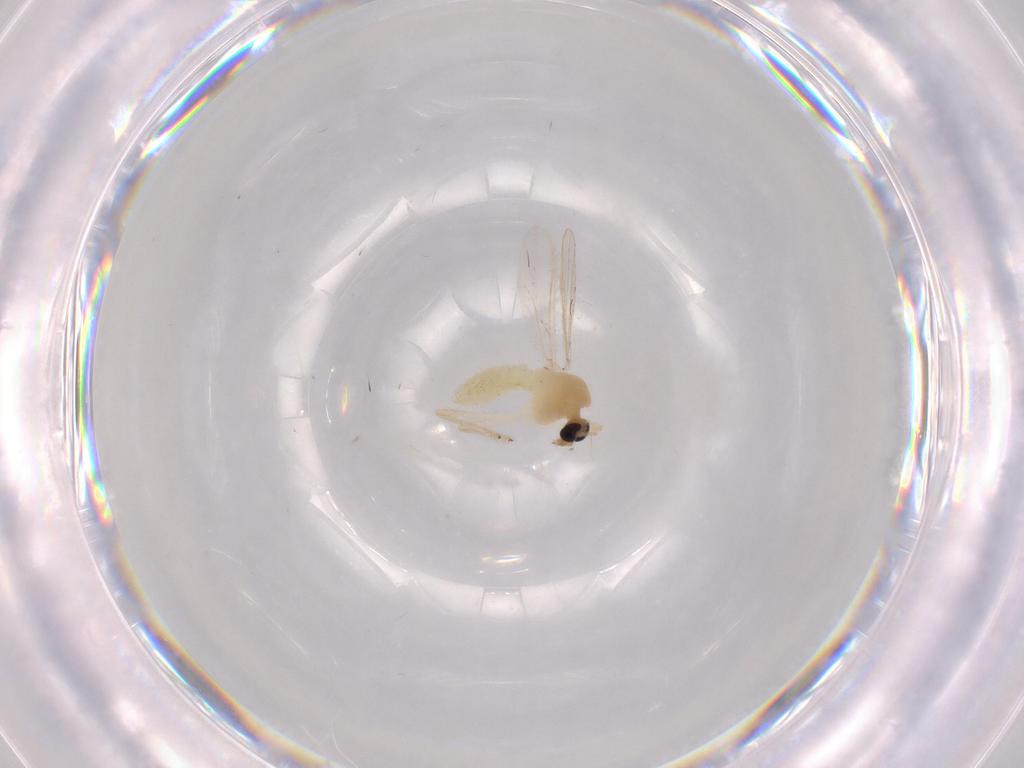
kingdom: Animalia
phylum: Arthropoda
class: Insecta
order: Diptera
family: Chironomidae
